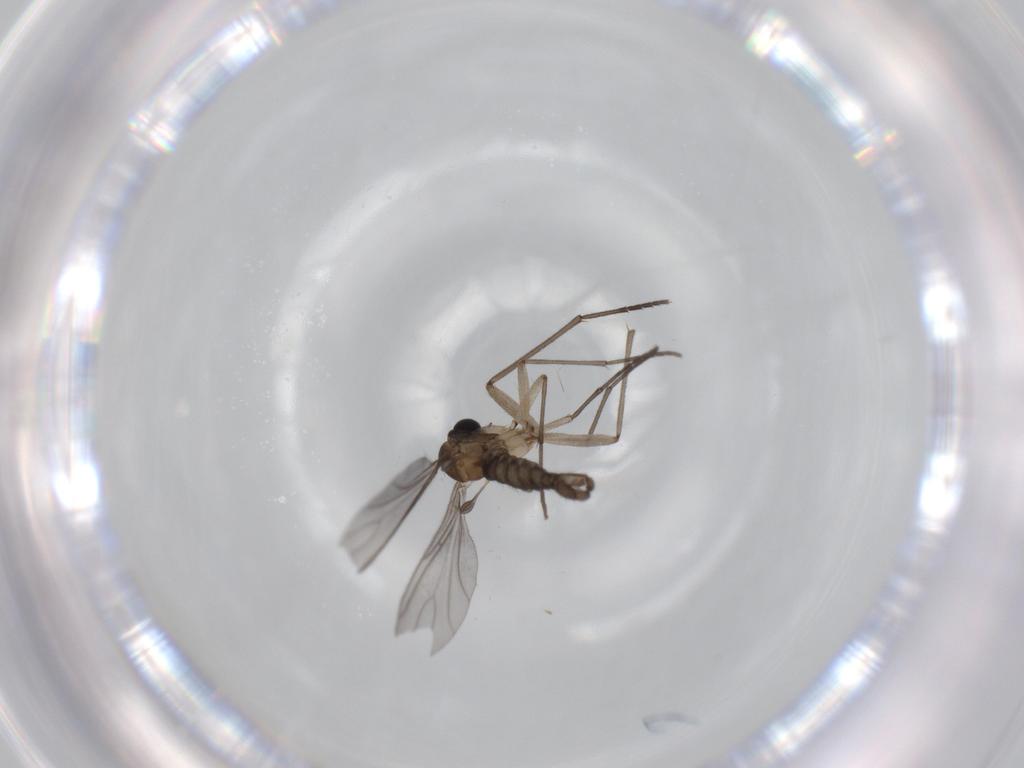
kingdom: Animalia
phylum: Arthropoda
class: Insecta
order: Diptera
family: Sciaridae
